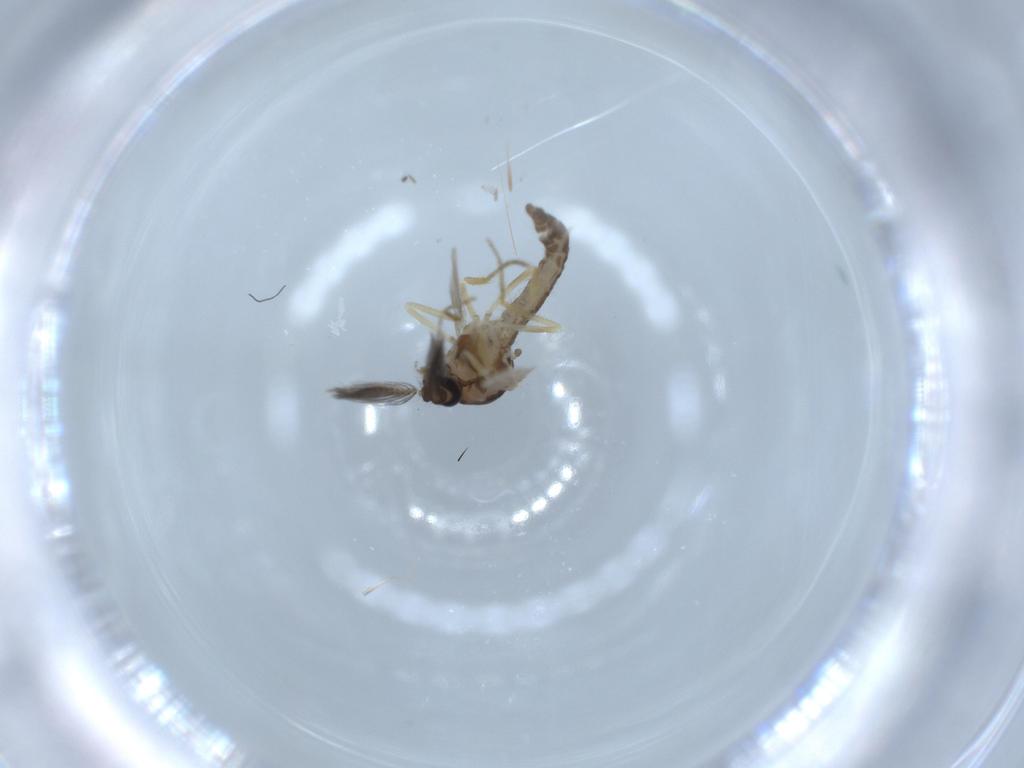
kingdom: Animalia
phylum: Arthropoda
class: Insecta
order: Diptera
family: Ceratopogonidae
